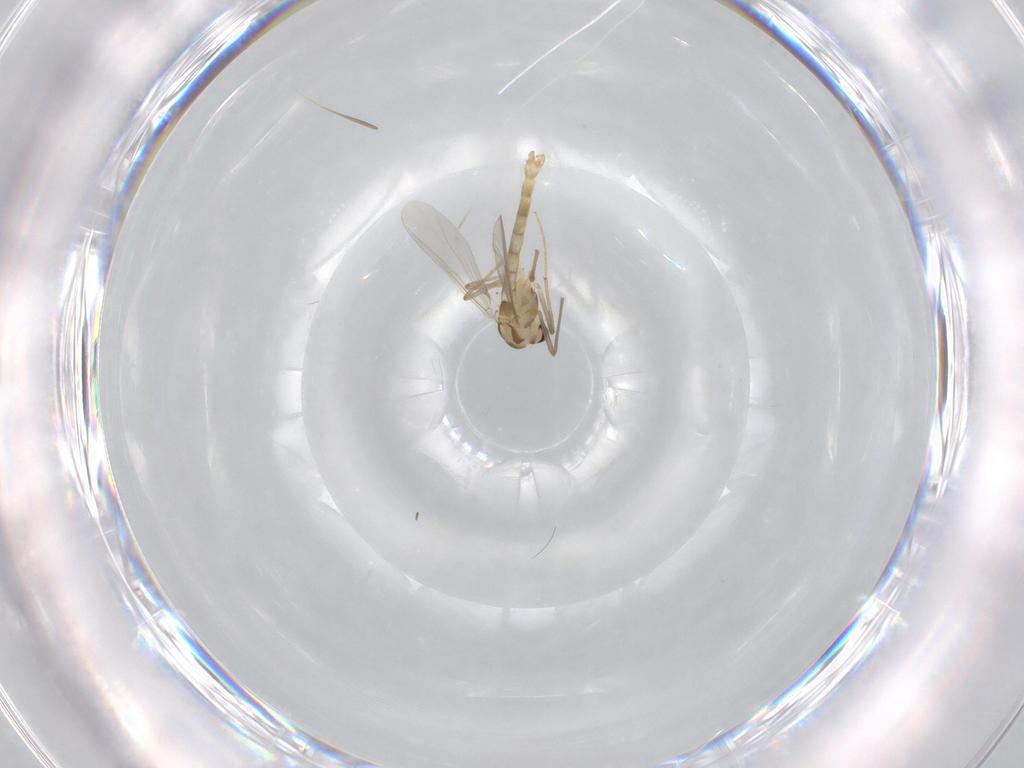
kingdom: Animalia
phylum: Arthropoda
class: Insecta
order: Diptera
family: Chironomidae
